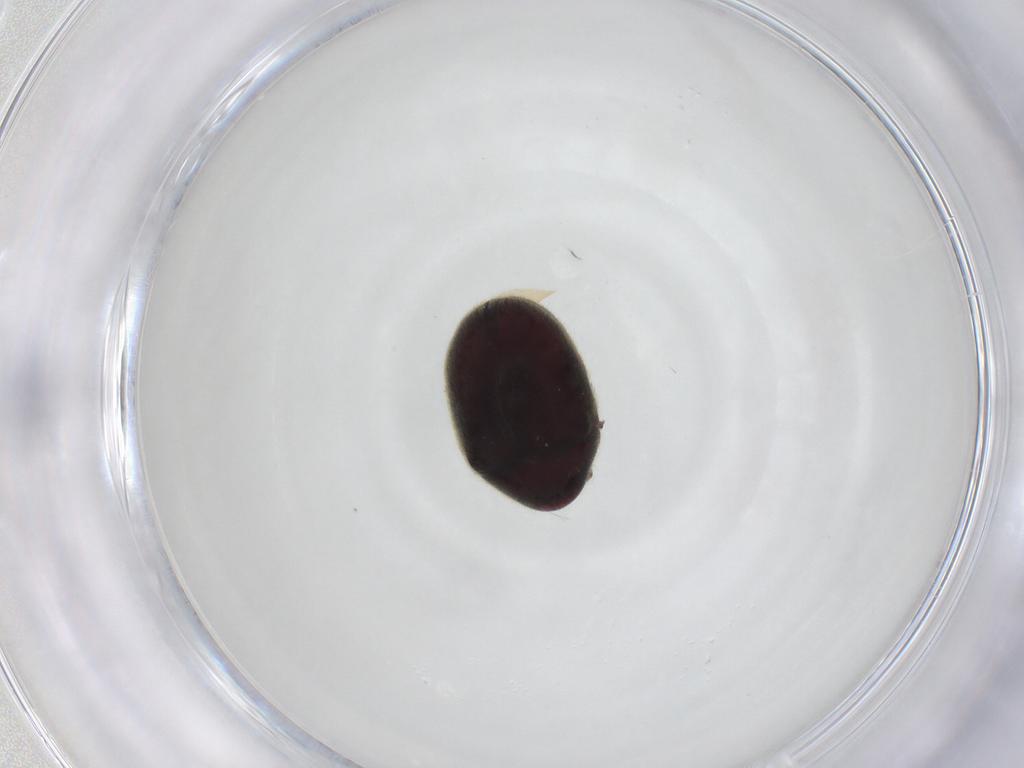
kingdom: Animalia
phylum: Arthropoda
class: Insecta
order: Coleoptera
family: Ptinidae
